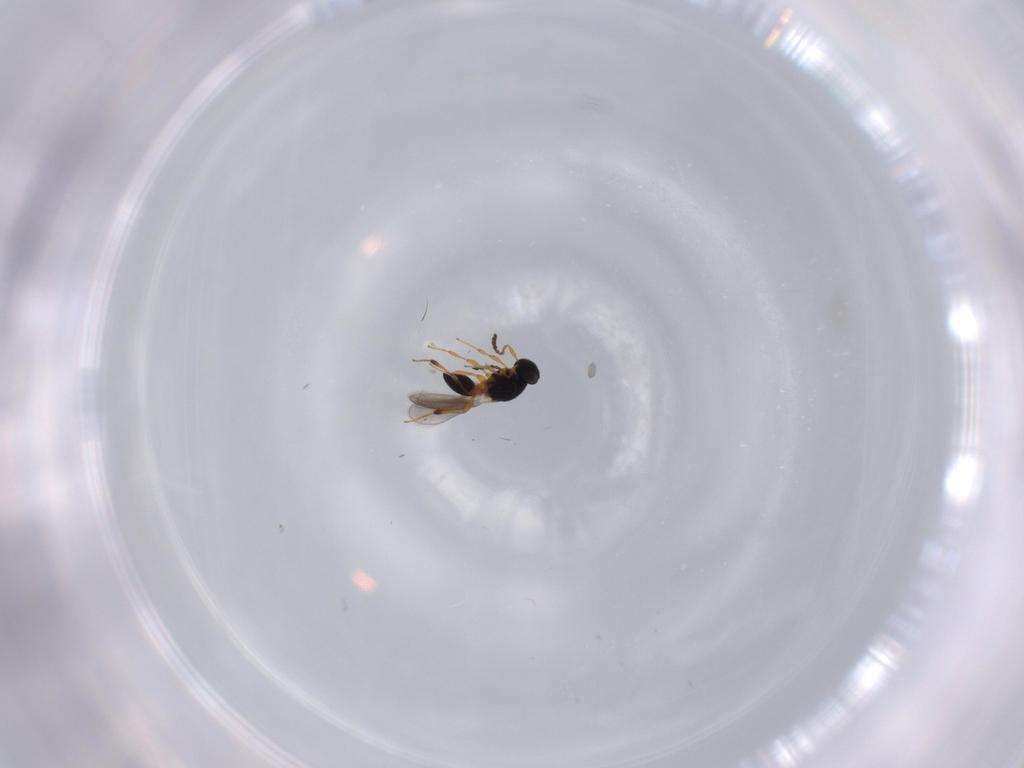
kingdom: Animalia
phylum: Arthropoda
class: Insecta
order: Hymenoptera
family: Platygastridae
